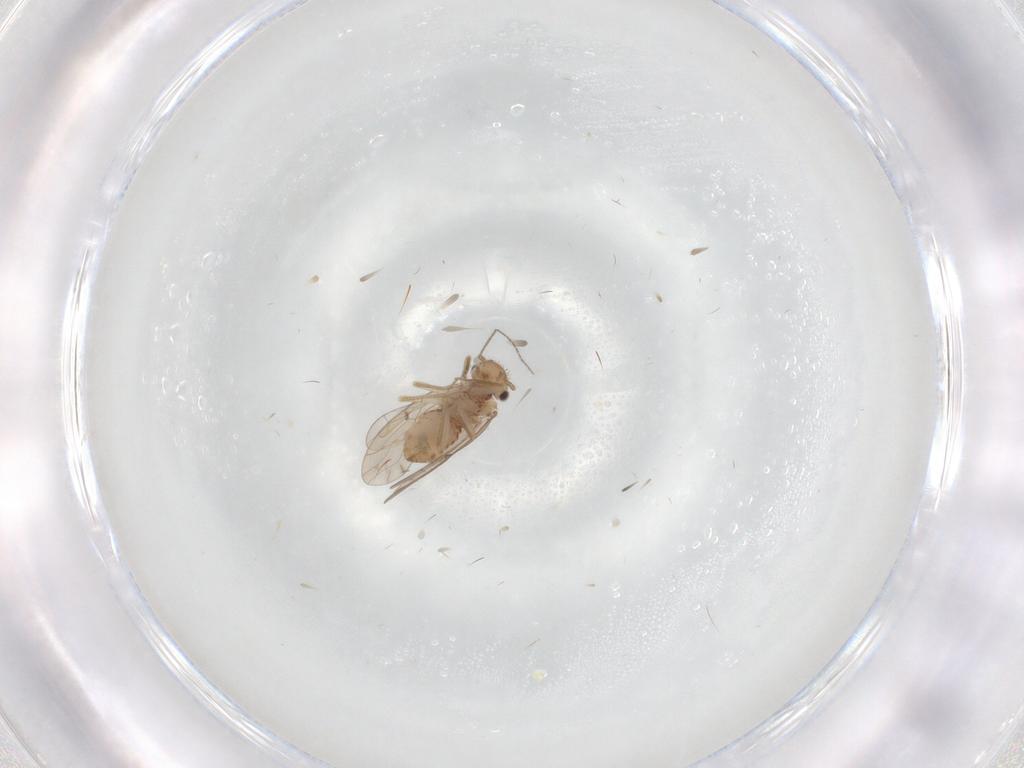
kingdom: Animalia
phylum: Arthropoda
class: Insecta
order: Psocodea
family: Ectopsocidae
